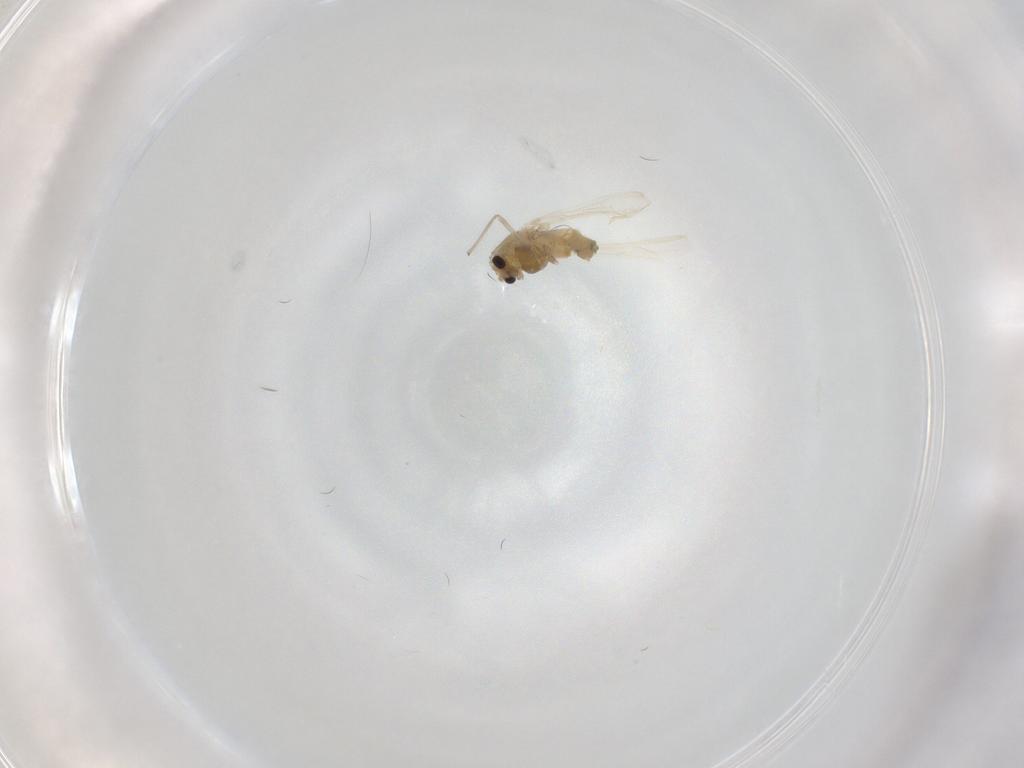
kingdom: Animalia
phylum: Arthropoda
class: Insecta
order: Diptera
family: Chironomidae
